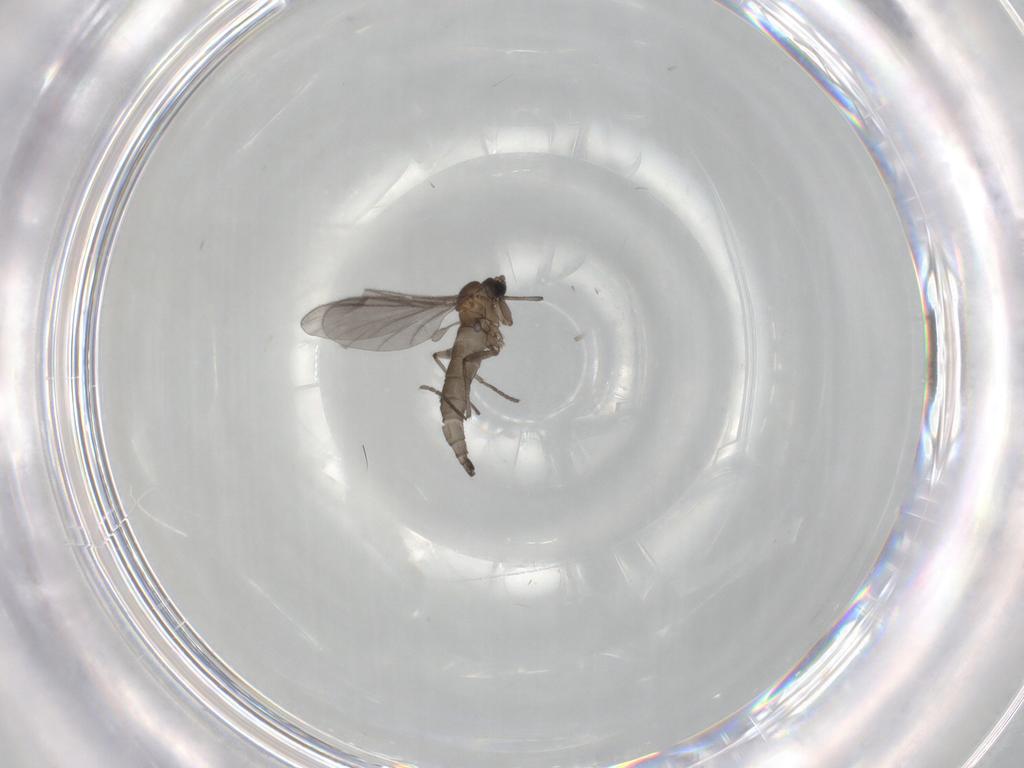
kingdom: Animalia
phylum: Arthropoda
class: Insecta
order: Diptera
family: Sciaridae
